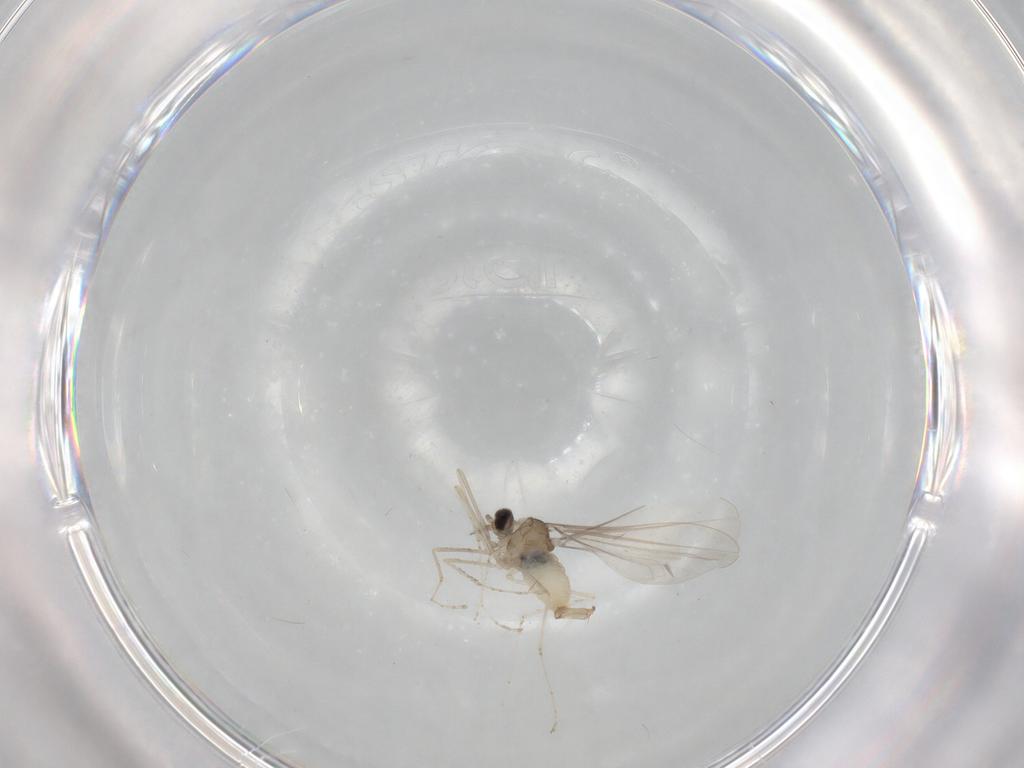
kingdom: Animalia
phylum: Arthropoda
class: Insecta
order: Diptera
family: Cecidomyiidae
